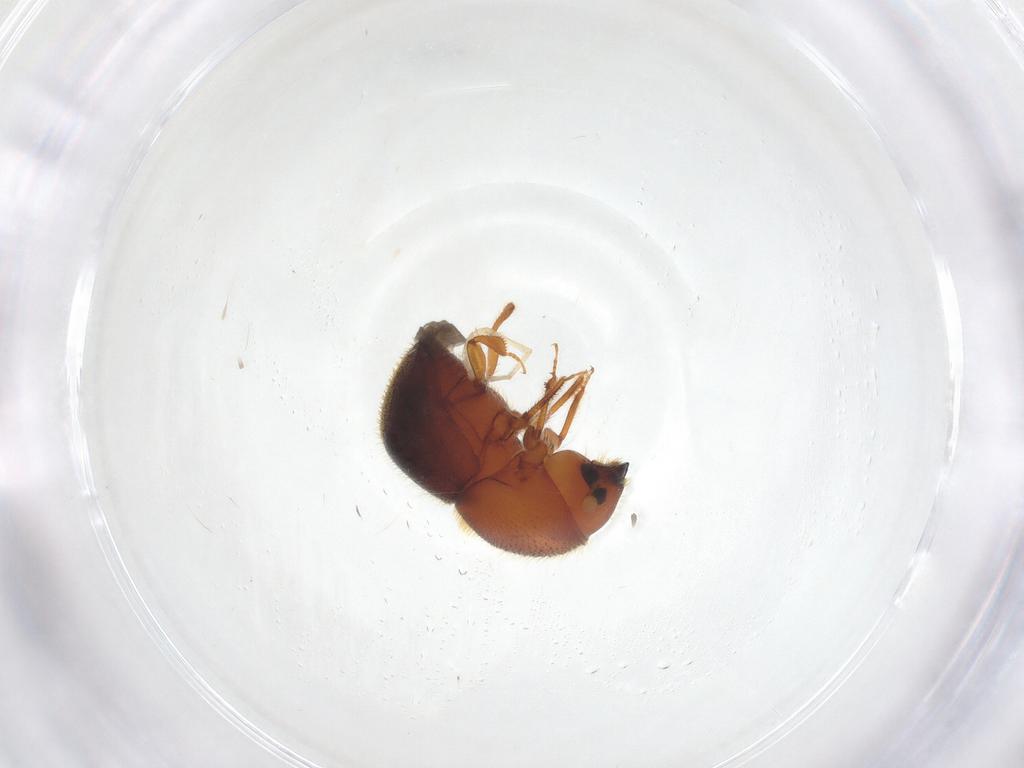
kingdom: Animalia
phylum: Arthropoda
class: Insecta
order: Coleoptera
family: Curculionidae
